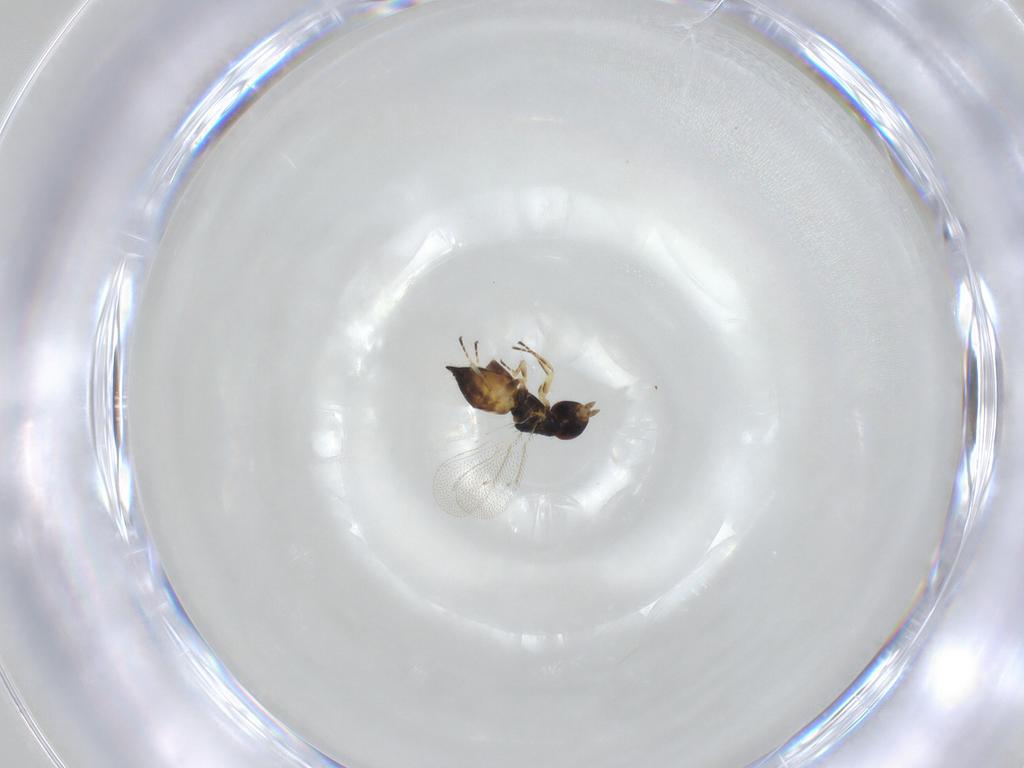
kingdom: Animalia
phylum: Arthropoda
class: Insecta
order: Hymenoptera
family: Eulophidae
